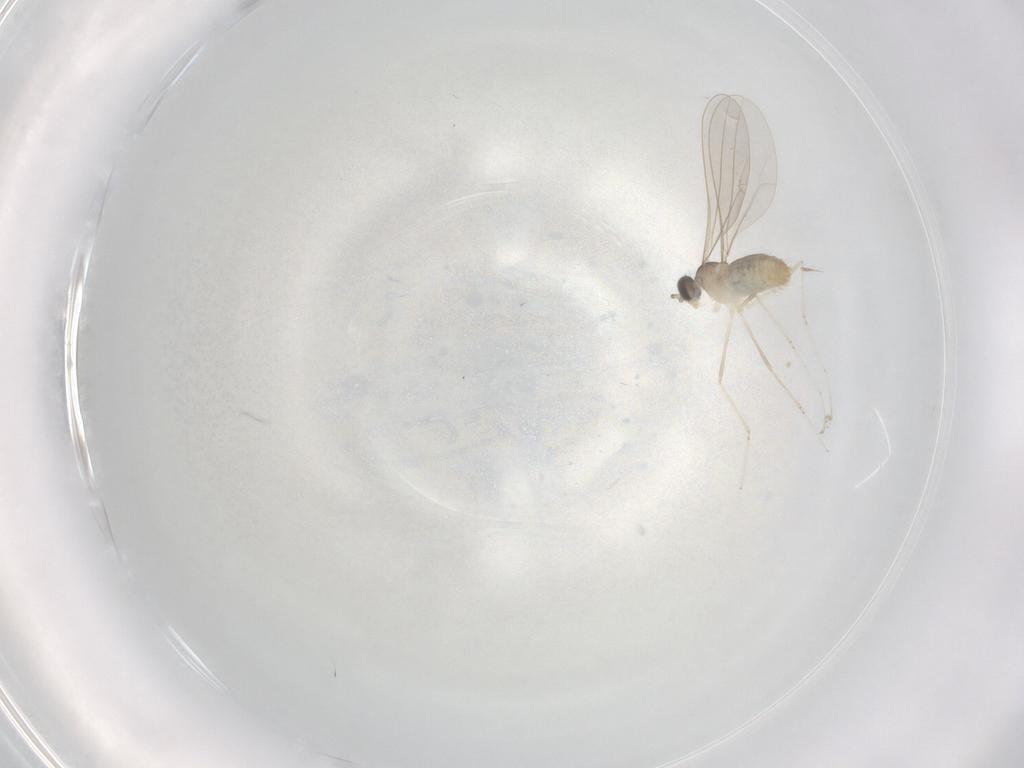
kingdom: Animalia
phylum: Arthropoda
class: Insecta
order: Diptera
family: Cecidomyiidae
